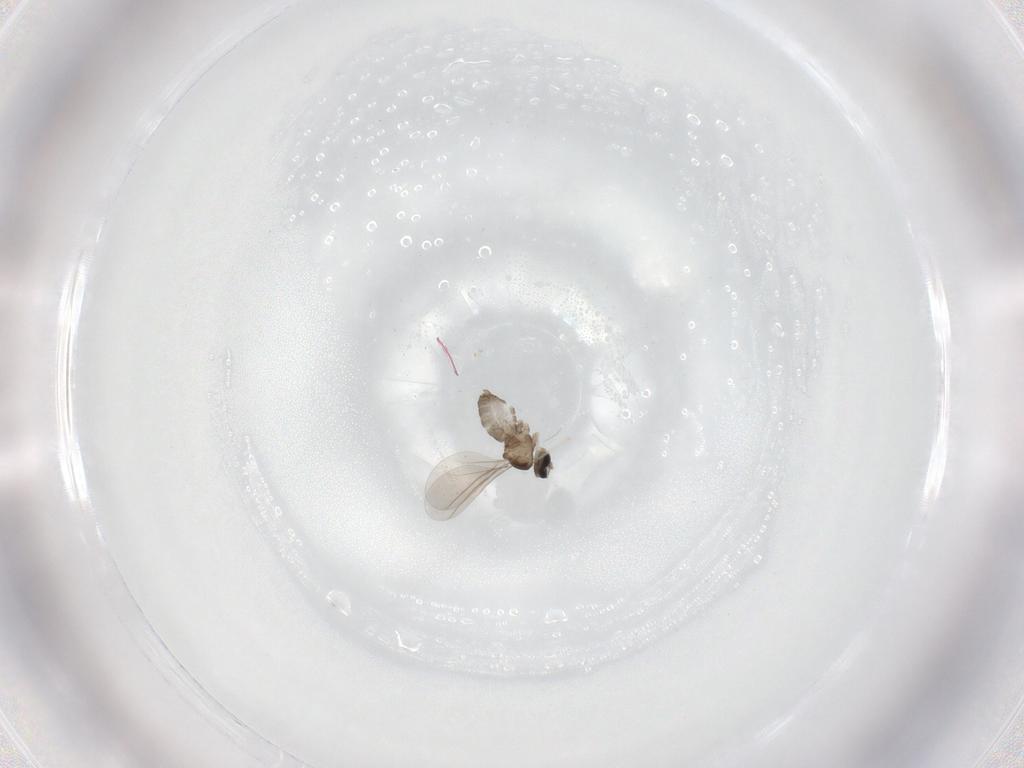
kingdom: Animalia
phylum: Arthropoda
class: Insecta
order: Diptera
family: Cecidomyiidae
